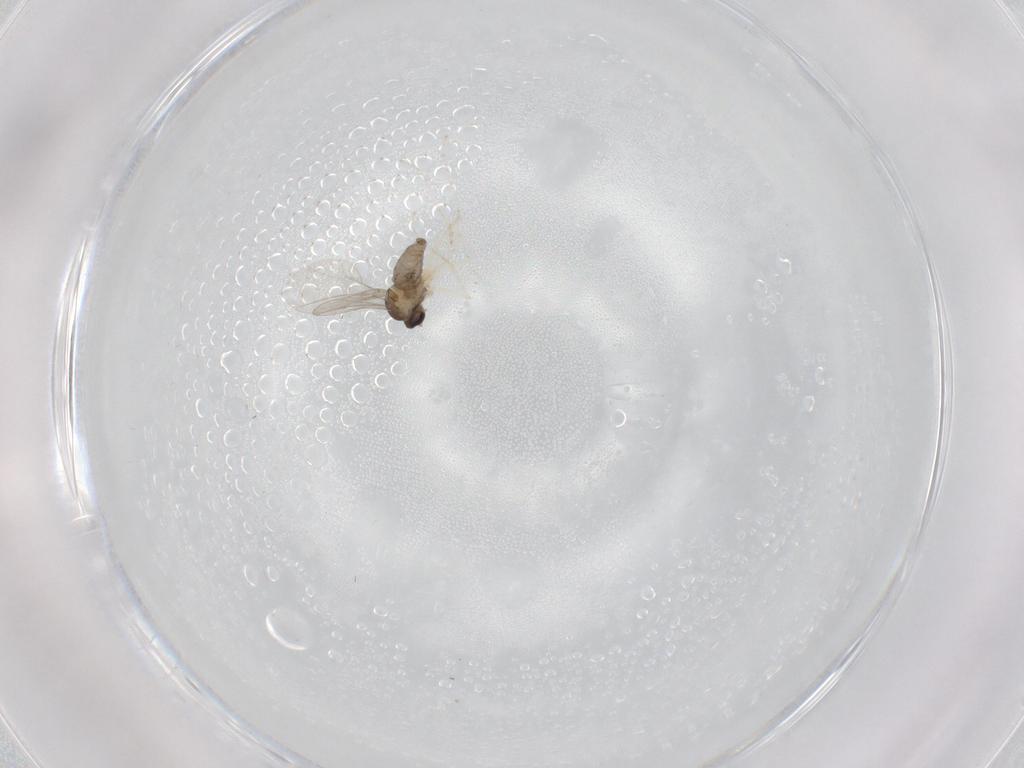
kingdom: Animalia
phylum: Arthropoda
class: Insecta
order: Diptera
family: Cecidomyiidae
